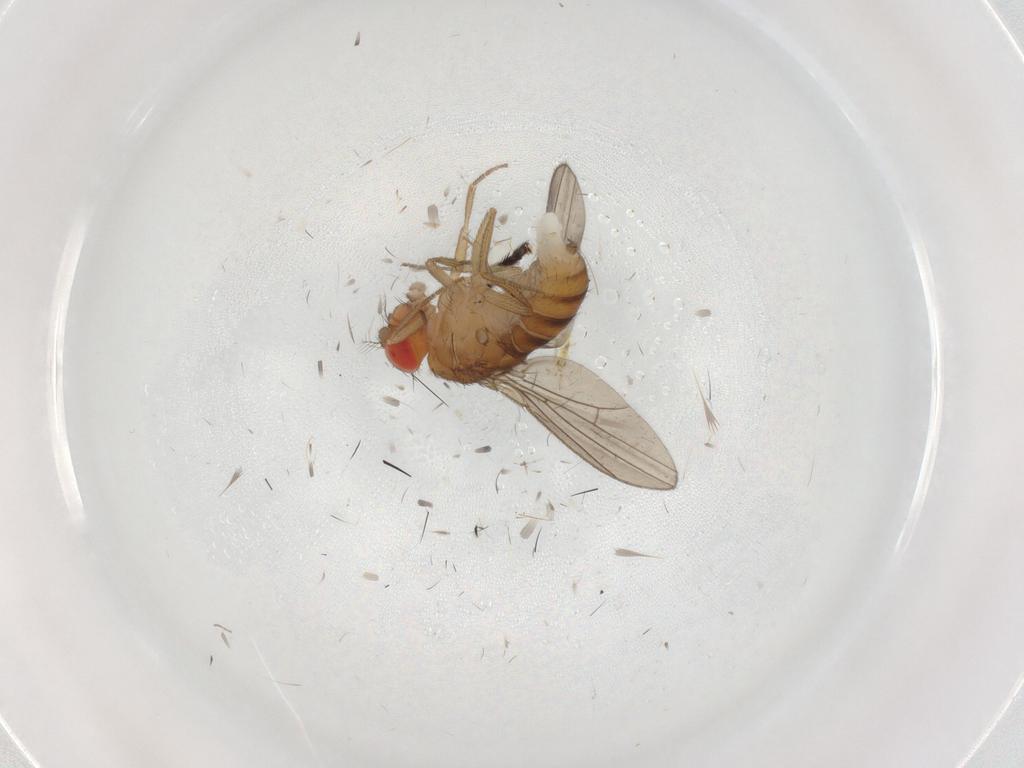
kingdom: Animalia
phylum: Arthropoda
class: Insecta
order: Diptera
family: Drosophilidae
